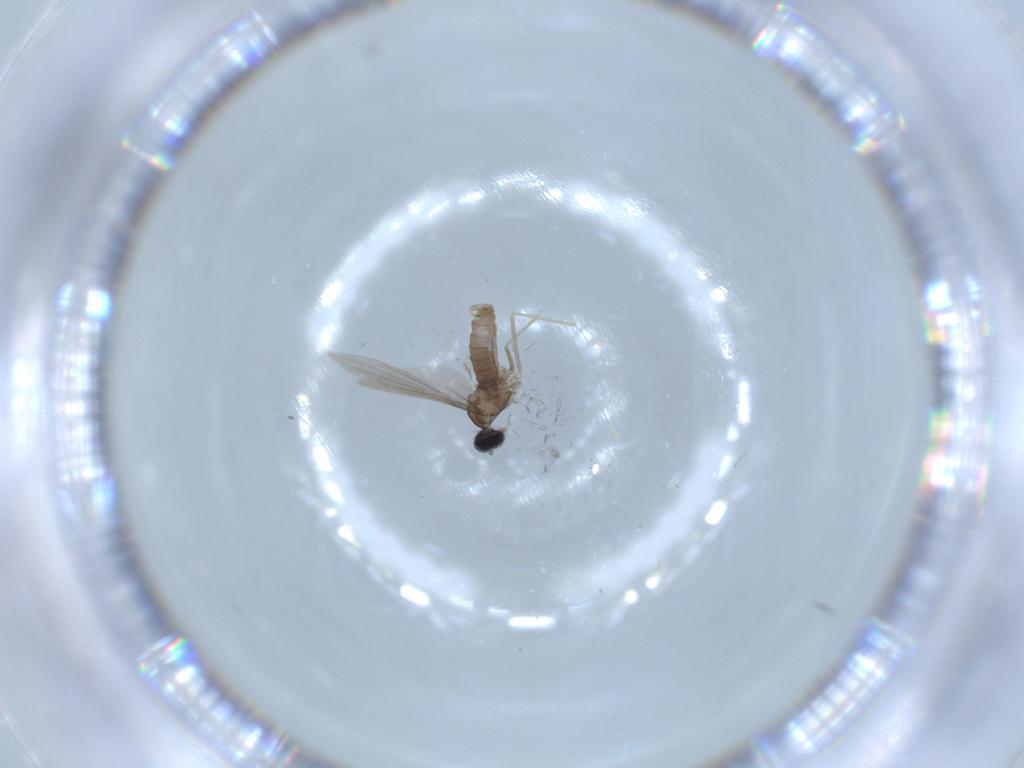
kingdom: Animalia
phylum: Arthropoda
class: Insecta
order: Diptera
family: Cecidomyiidae
